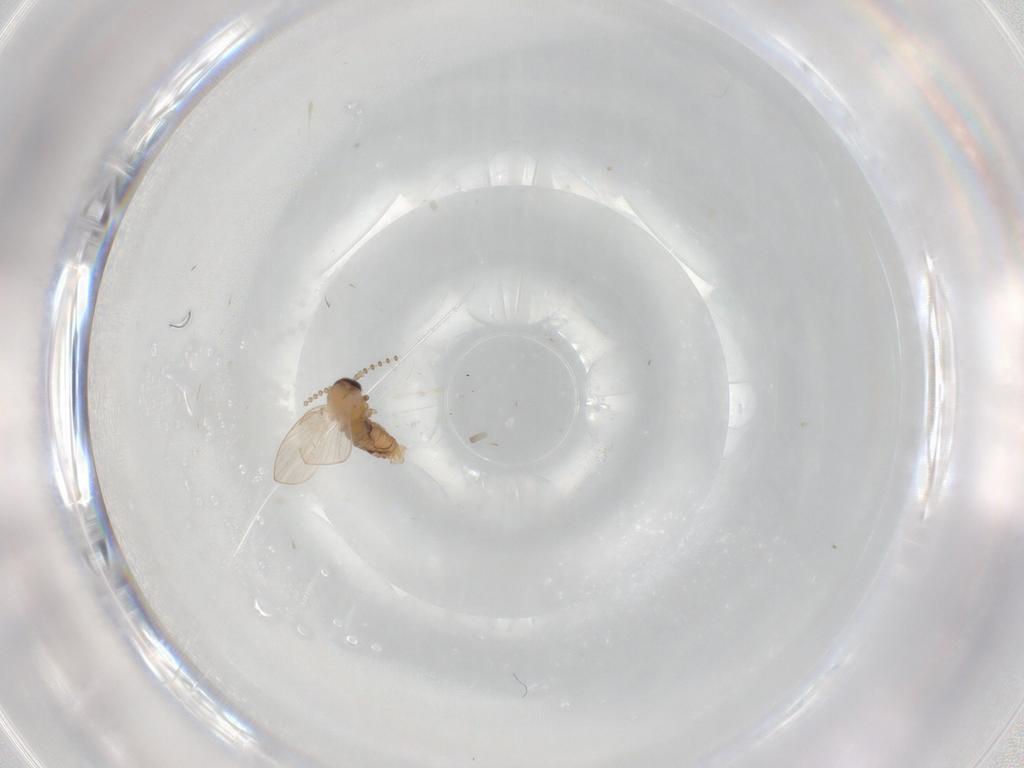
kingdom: Animalia
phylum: Arthropoda
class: Insecta
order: Diptera
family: Psychodidae
